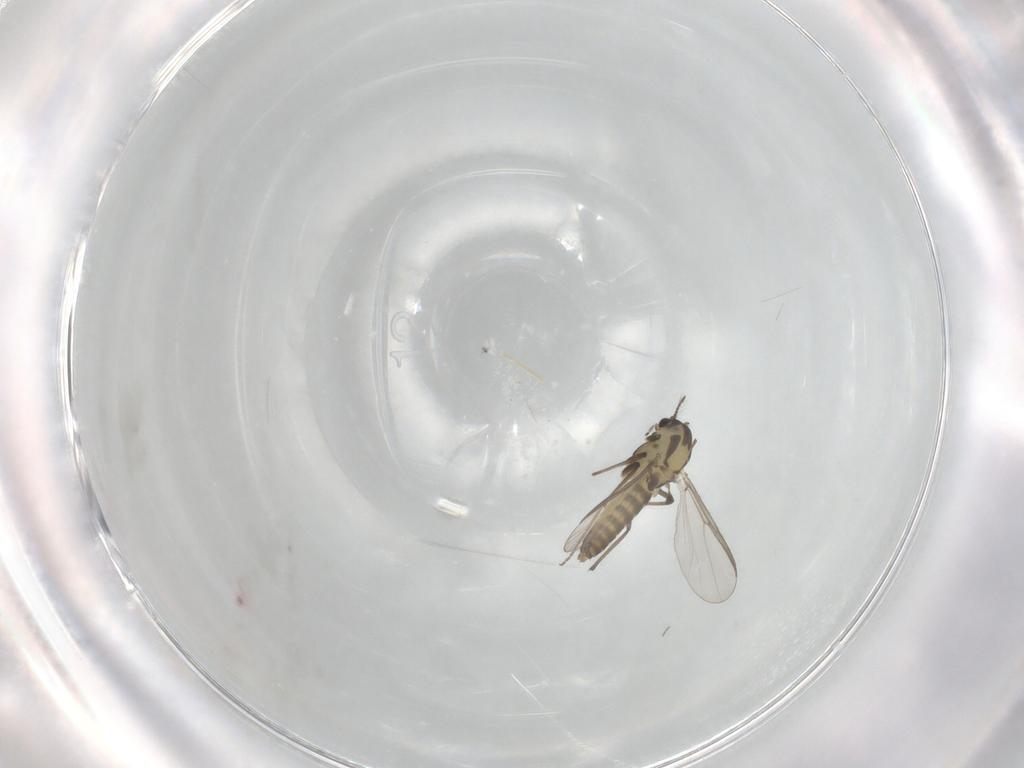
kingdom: Animalia
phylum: Arthropoda
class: Insecta
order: Diptera
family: Chironomidae
